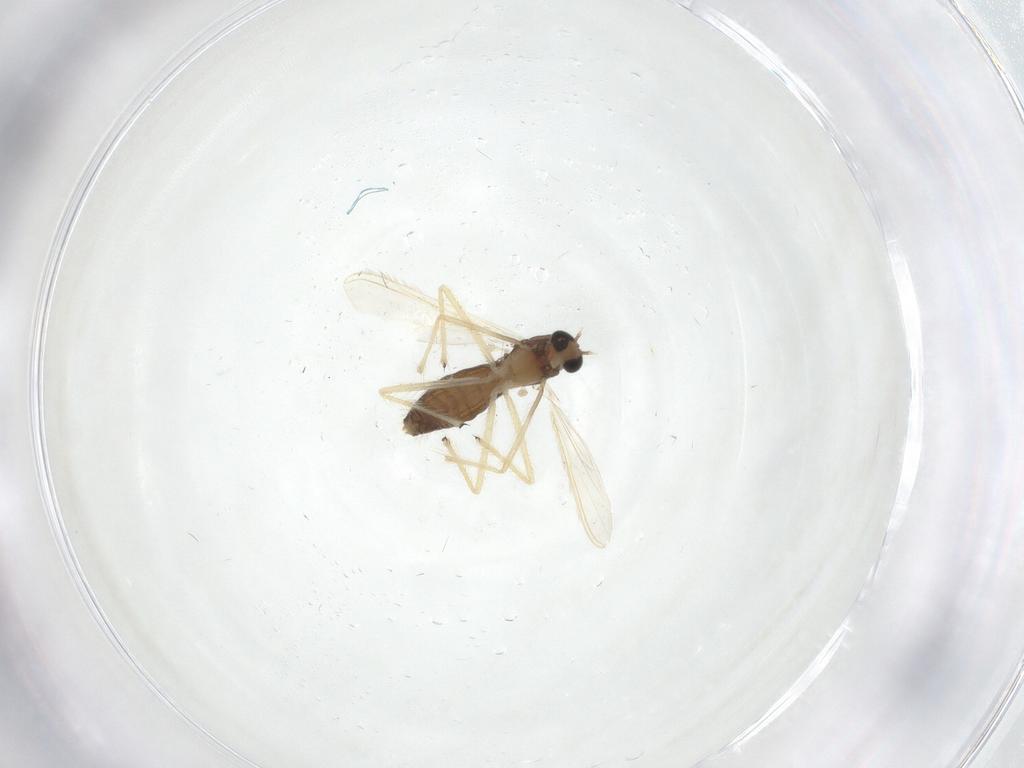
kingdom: Animalia
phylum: Arthropoda
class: Insecta
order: Diptera
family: Chironomidae
